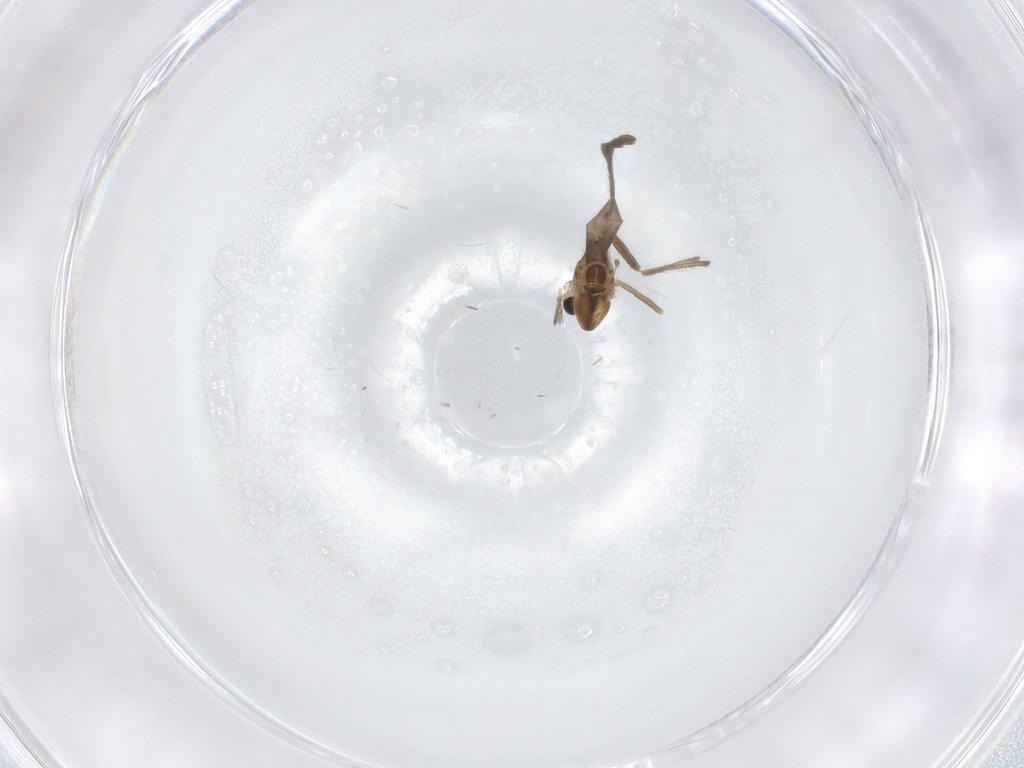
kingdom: Animalia
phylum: Arthropoda
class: Insecta
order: Diptera
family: Chironomidae
